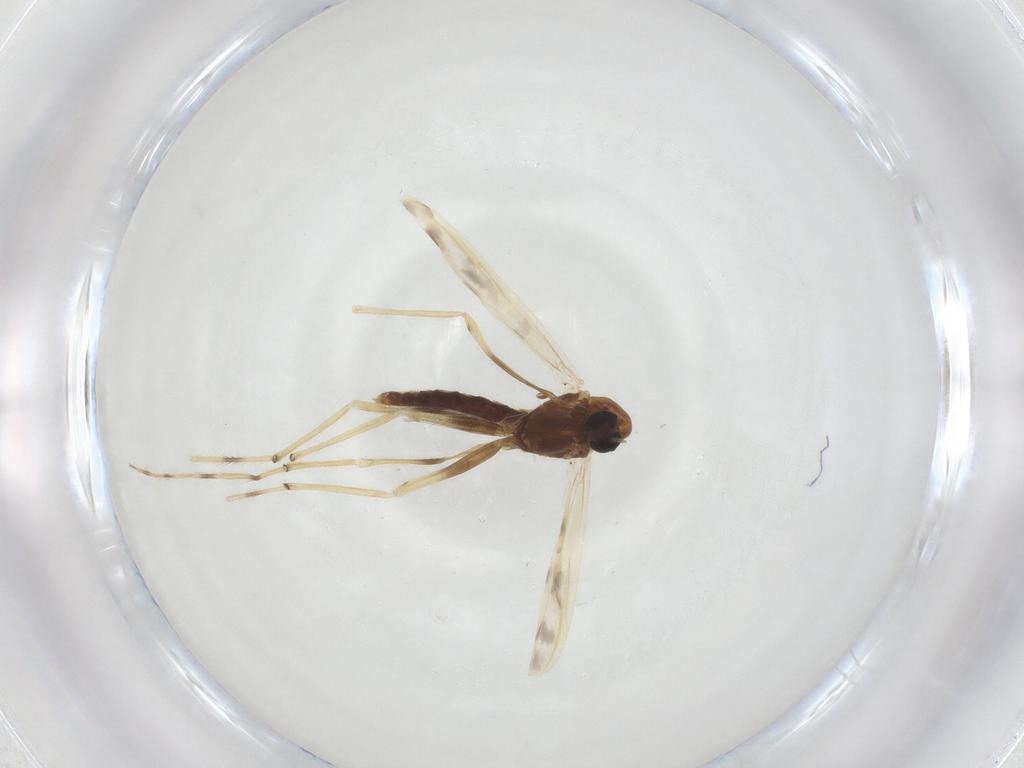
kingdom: Animalia
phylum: Arthropoda
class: Insecta
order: Diptera
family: Chironomidae
